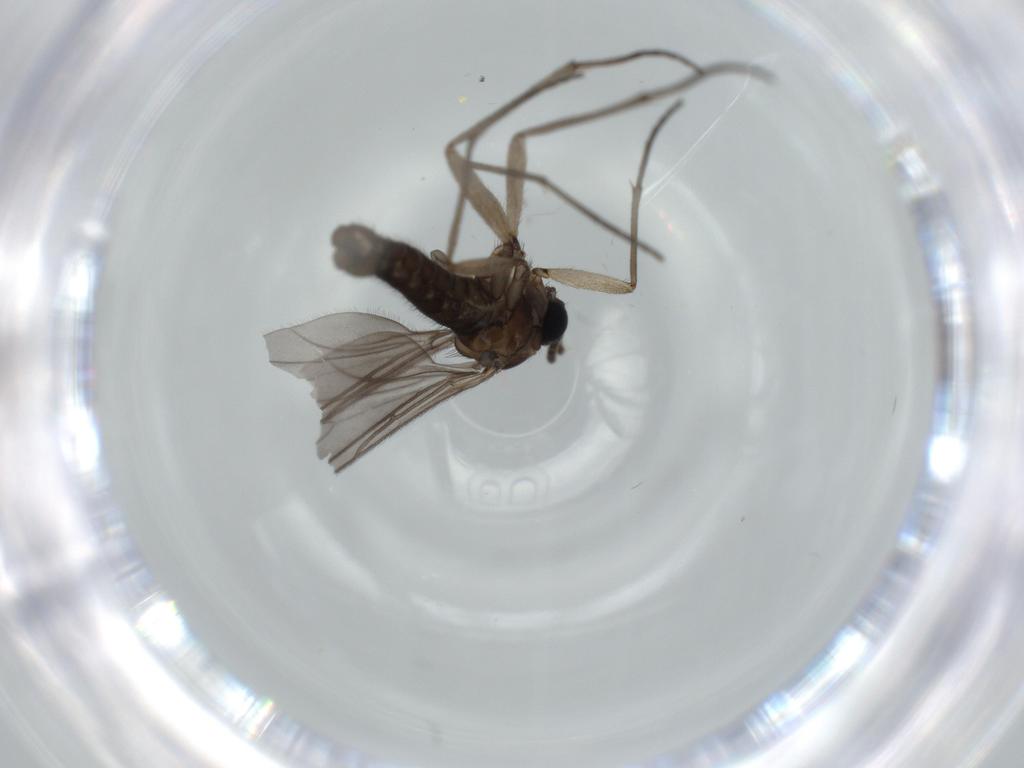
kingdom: Animalia
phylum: Arthropoda
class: Insecta
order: Diptera
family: Sciaridae
